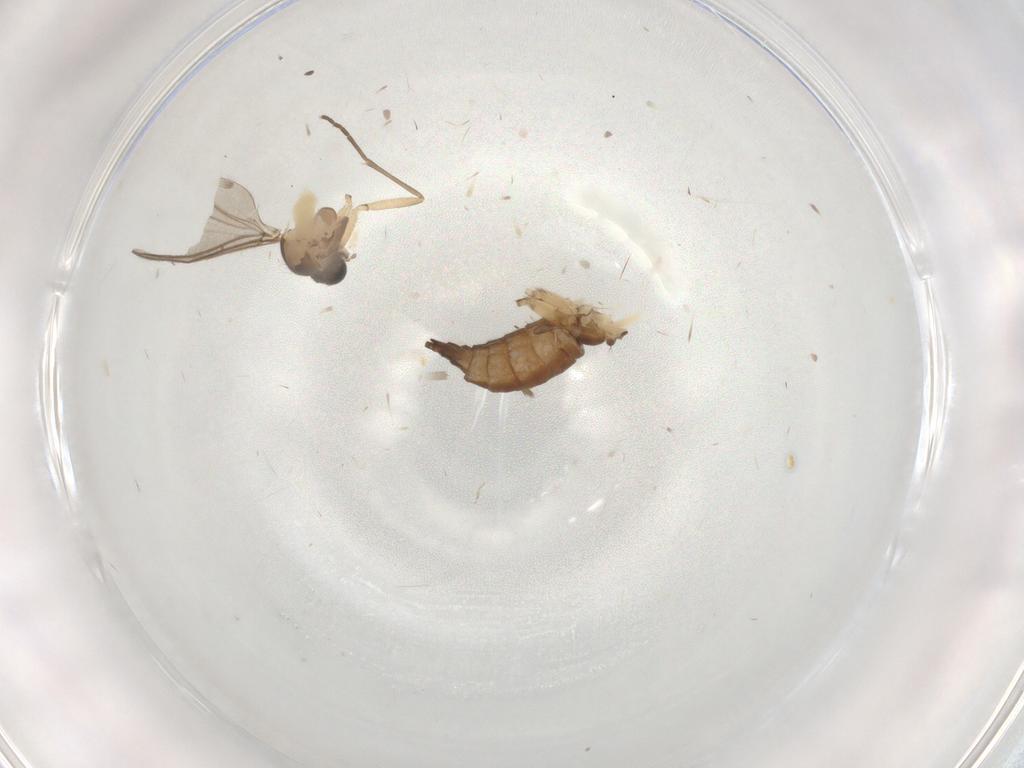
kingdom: Animalia
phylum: Arthropoda
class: Insecta
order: Diptera
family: Sciaridae
